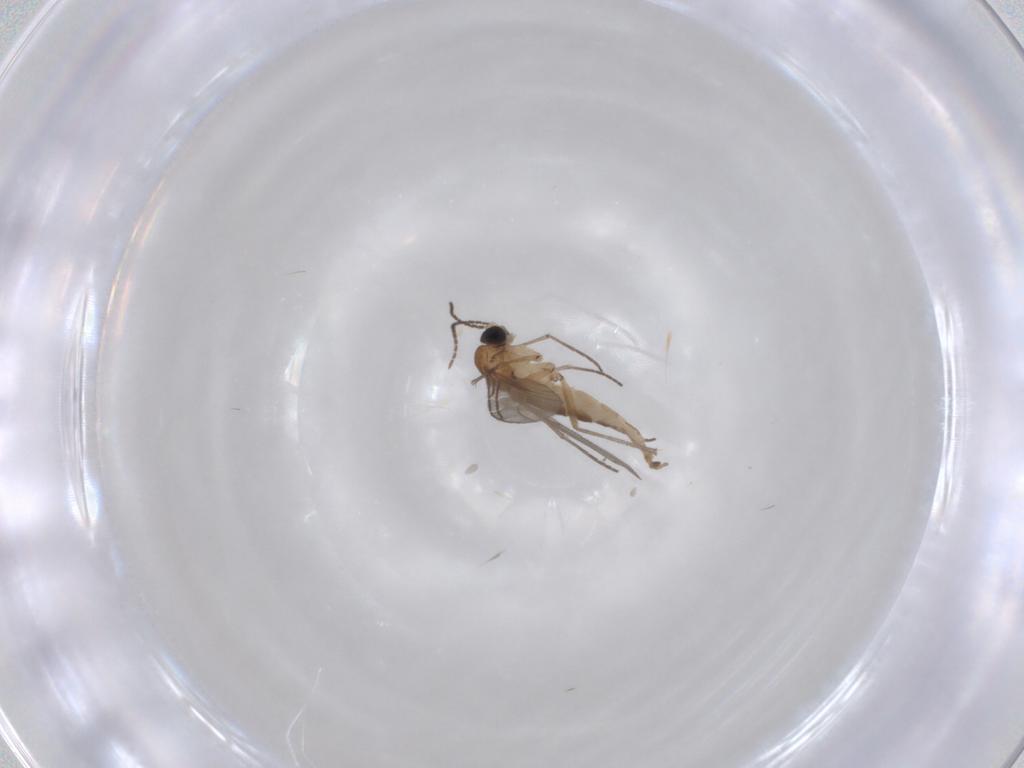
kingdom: Animalia
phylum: Arthropoda
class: Insecta
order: Diptera
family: Sciaridae
